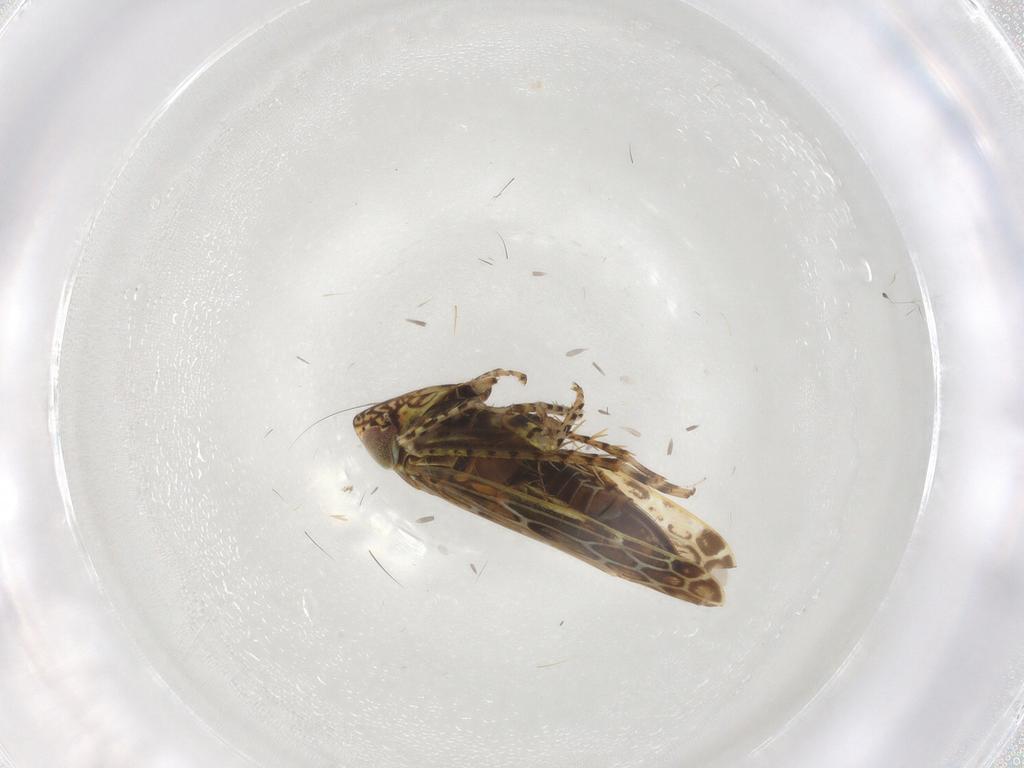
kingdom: Animalia
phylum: Arthropoda
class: Insecta
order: Hemiptera
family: Cicadellidae
